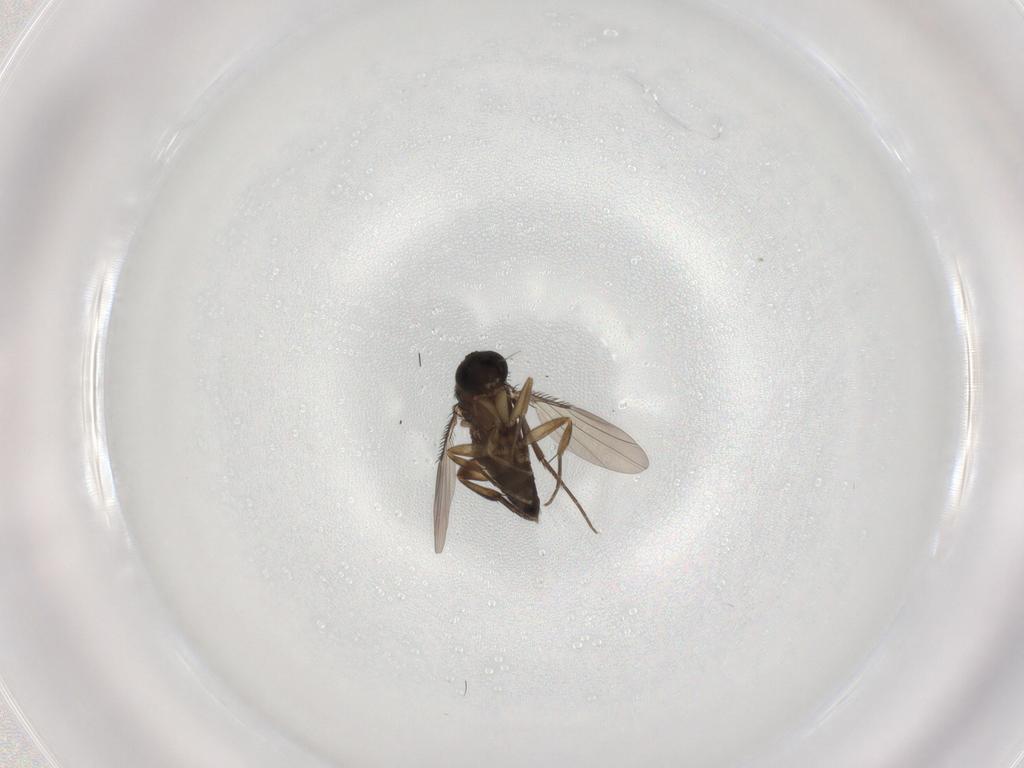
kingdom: Animalia
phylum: Arthropoda
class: Insecta
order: Diptera
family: Phoridae
